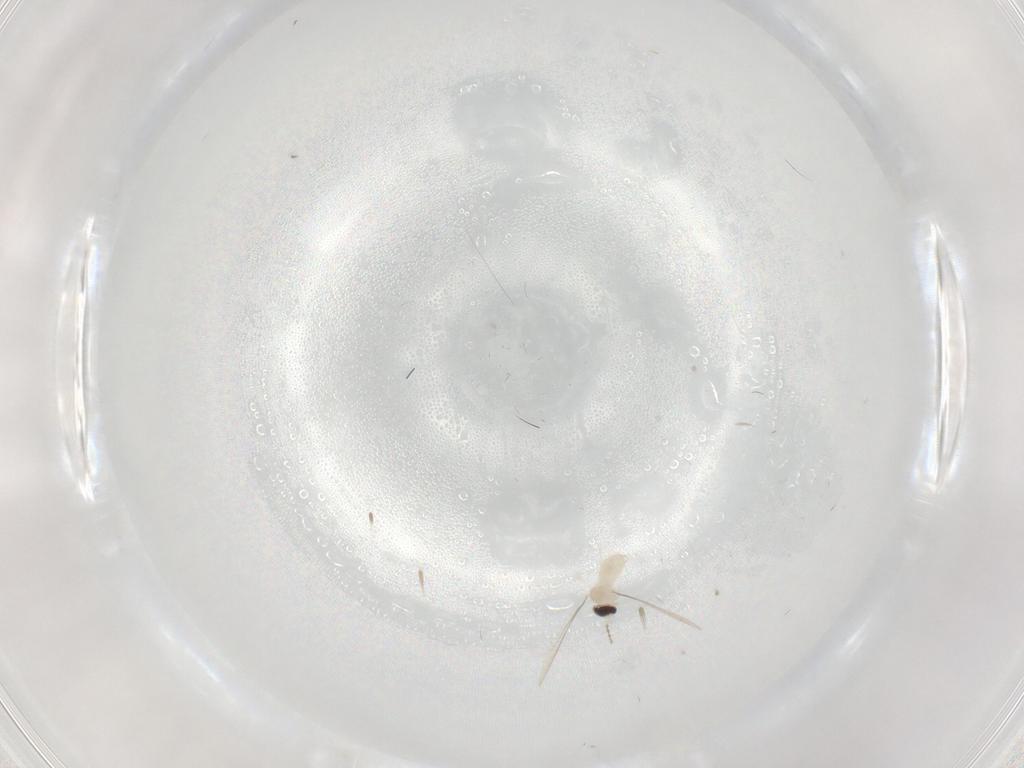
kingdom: Animalia
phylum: Arthropoda
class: Insecta
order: Diptera
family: Cecidomyiidae
